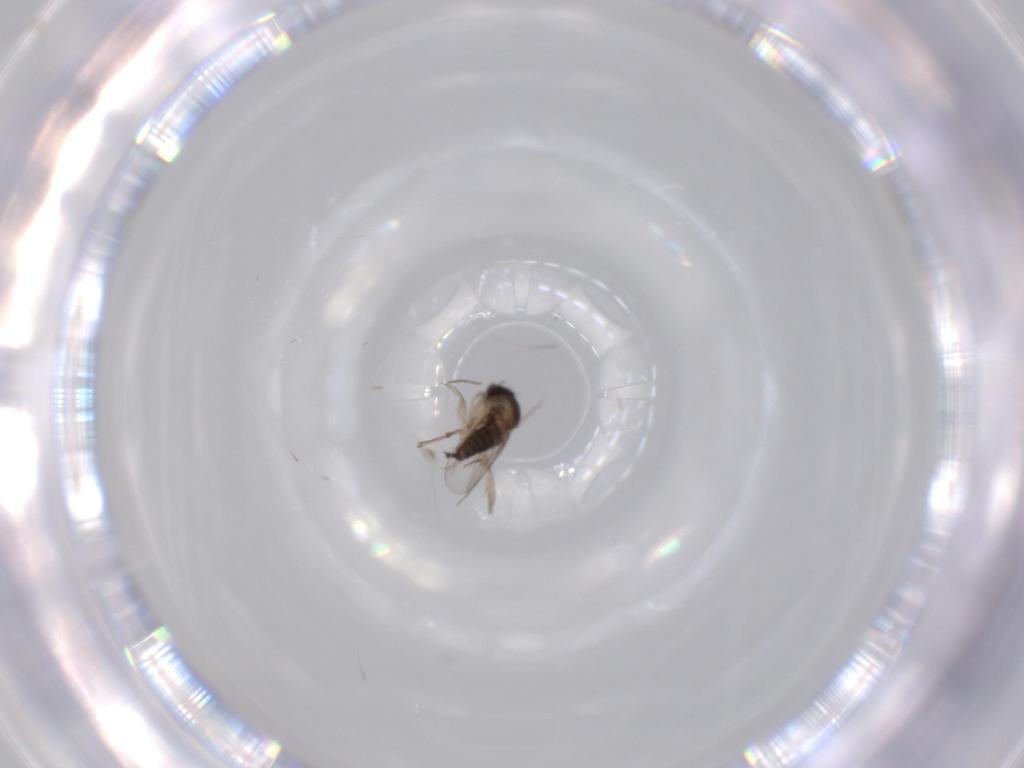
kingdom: Animalia
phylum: Arthropoda
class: Insecta
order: Diptera
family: Phoridae
